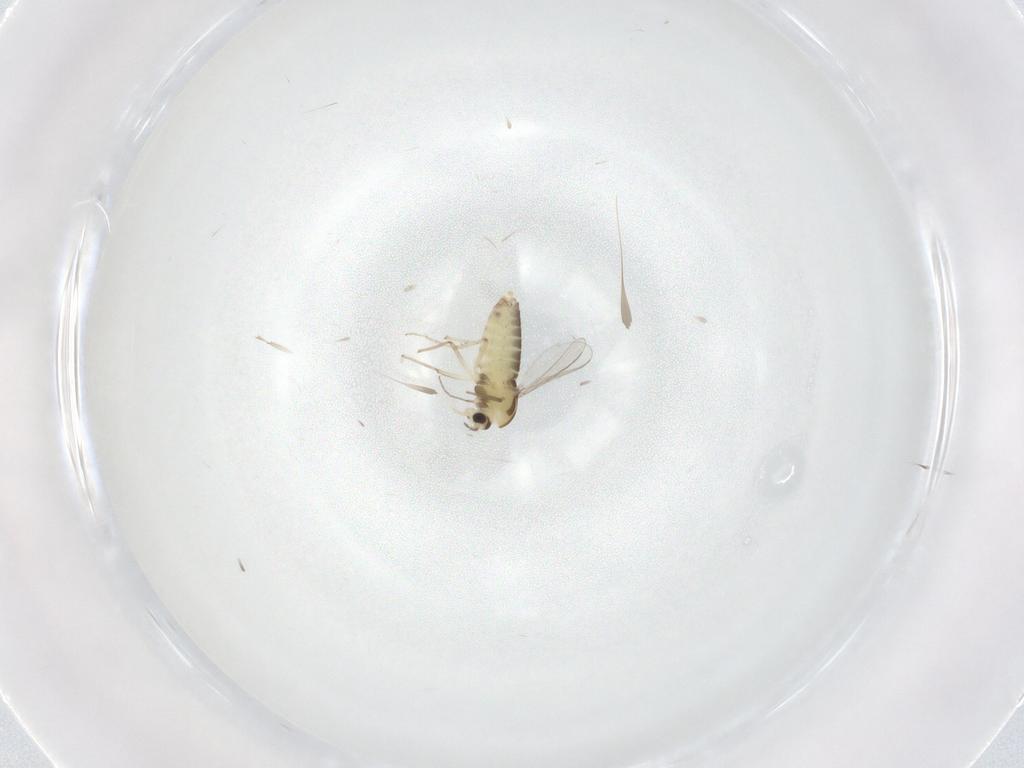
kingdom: Animalia
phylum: Arthropoda
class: Insecta
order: Diptera
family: Chironomidae
